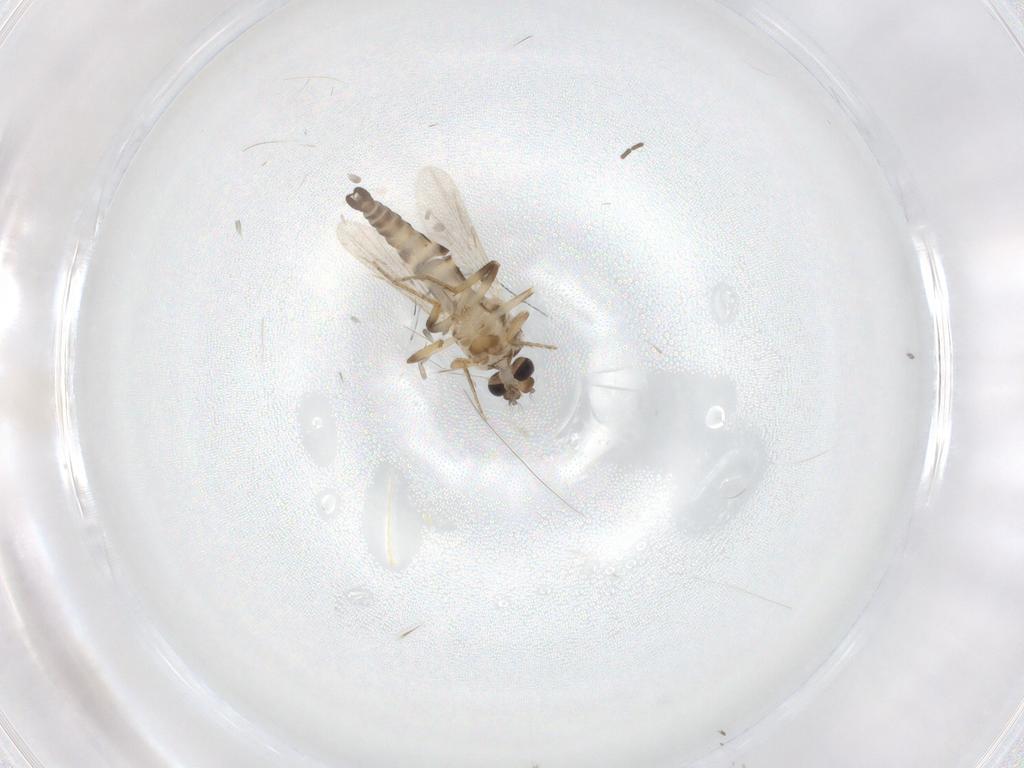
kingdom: Animalia
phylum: Arthropoda
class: Insecta
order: Diptera
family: Ceratopogonidae
